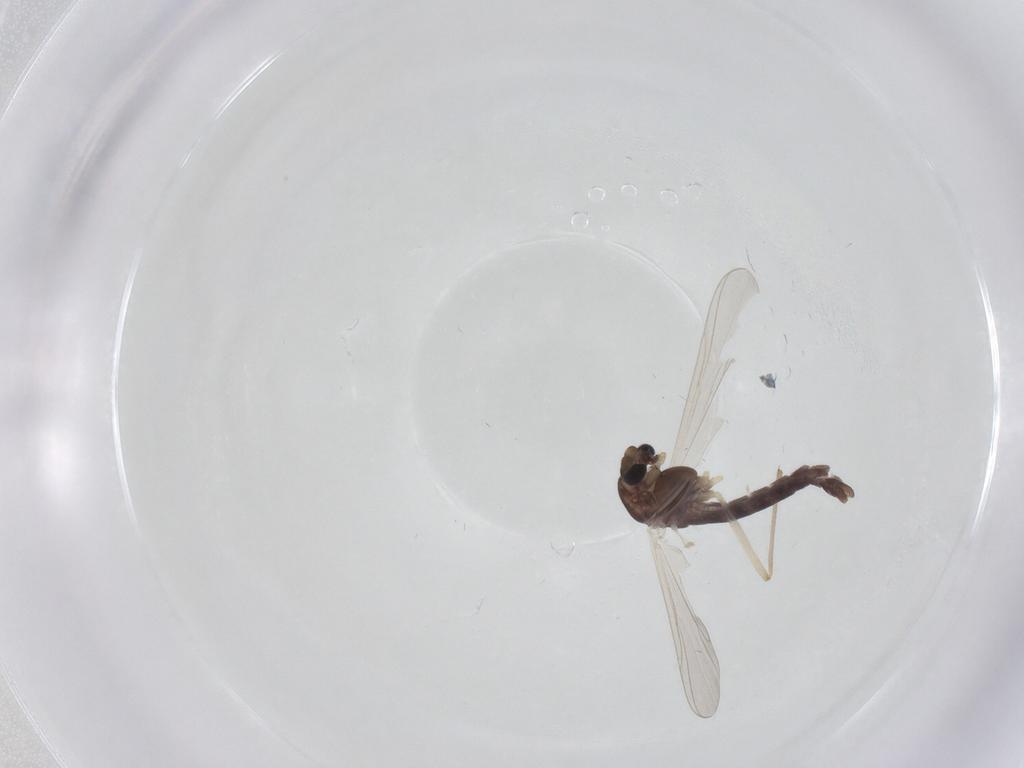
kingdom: Animalia
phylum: Arthropoda
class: Insecta
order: Diptera
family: Chironomidae
